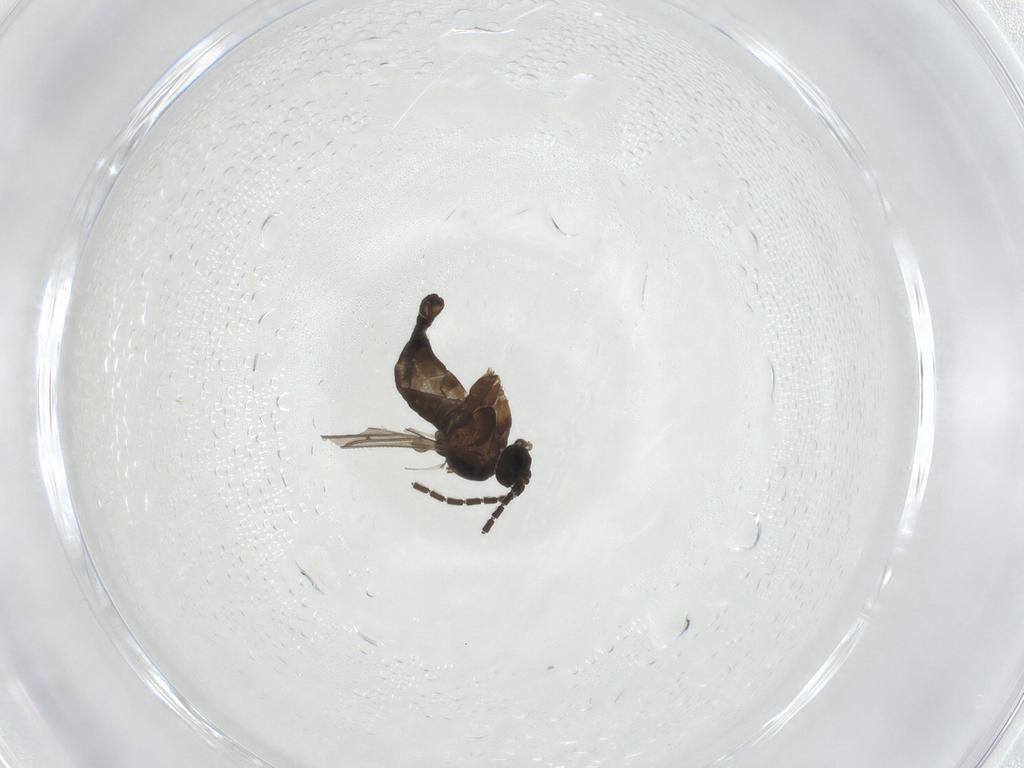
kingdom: Animalia
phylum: Arthropoda
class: Insecta
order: Diptera
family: Sciaridae
